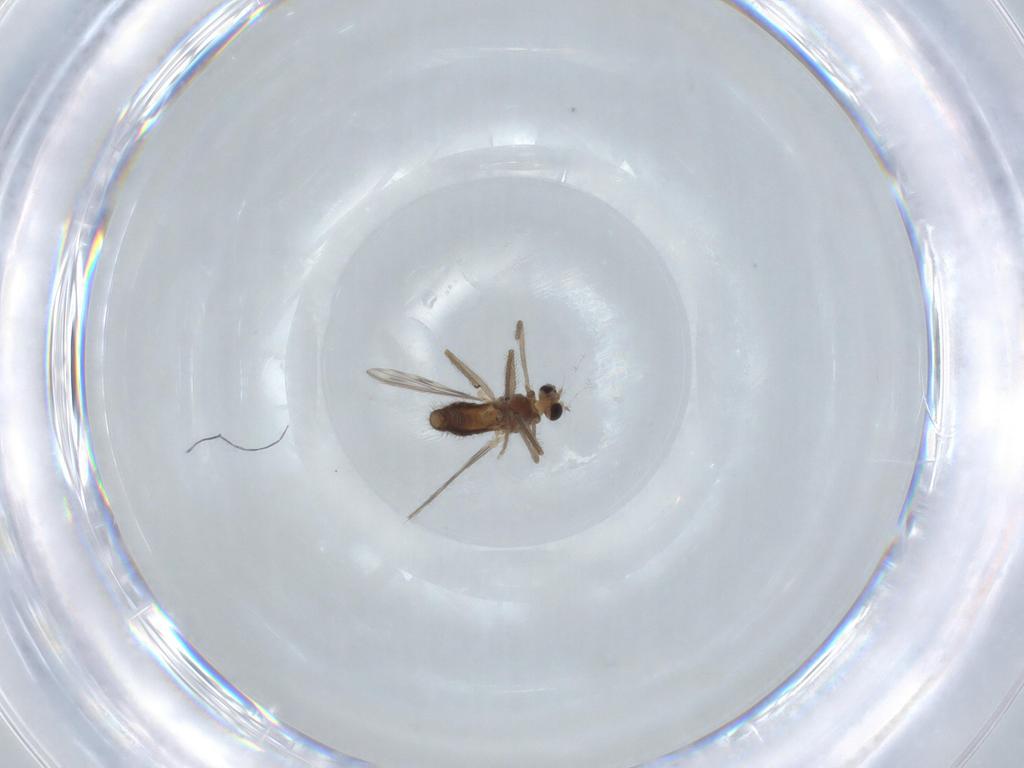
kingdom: Animalia
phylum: Arthropoda
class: Insecta
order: Diptera
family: Chironomidae
